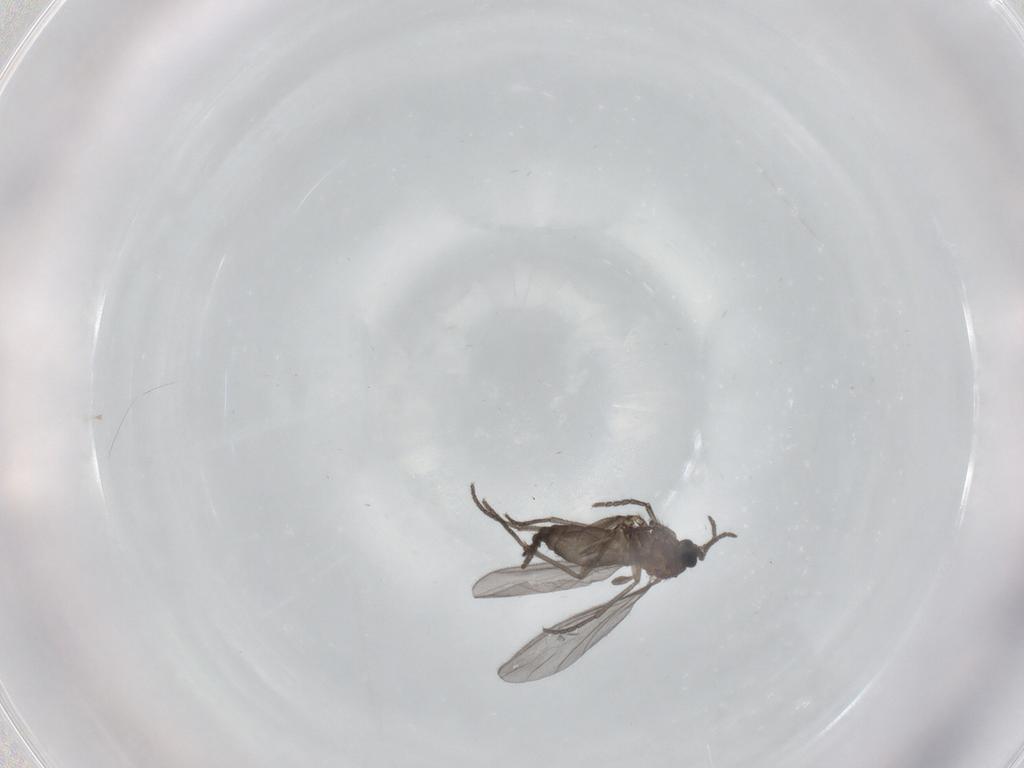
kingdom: Animalia
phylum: Arthropoda
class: Insecta
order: Diptera
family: Sciaridae
